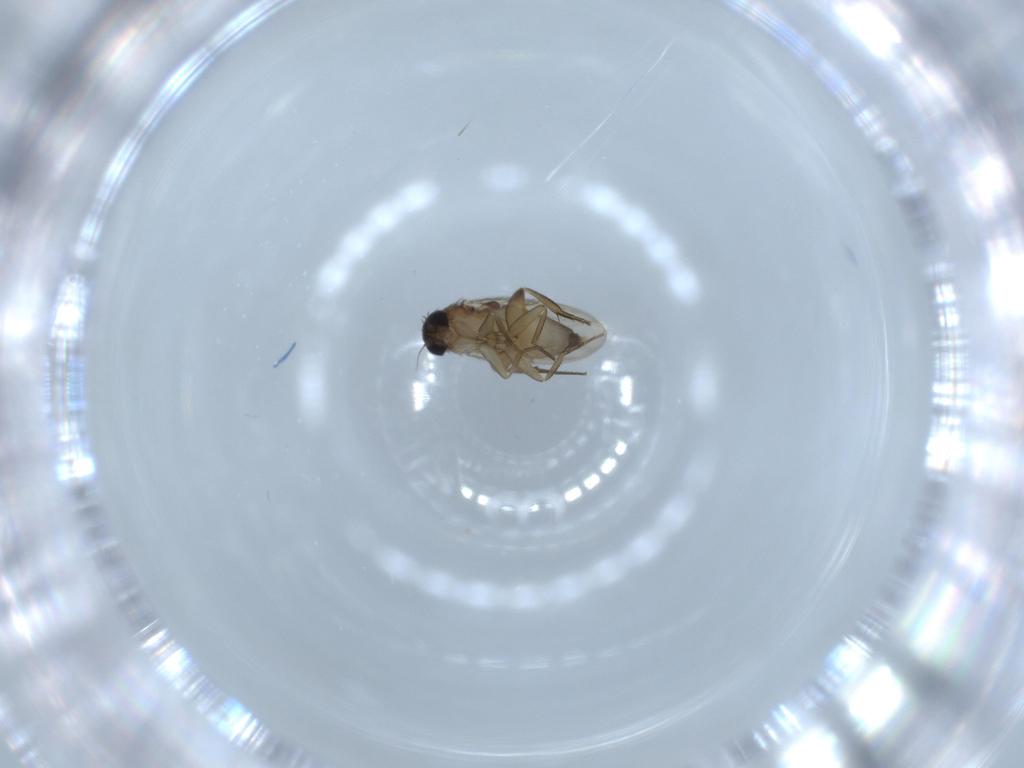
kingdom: Animalia
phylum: Arthropoda
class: Insecta
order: Diptera
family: Phoridae
